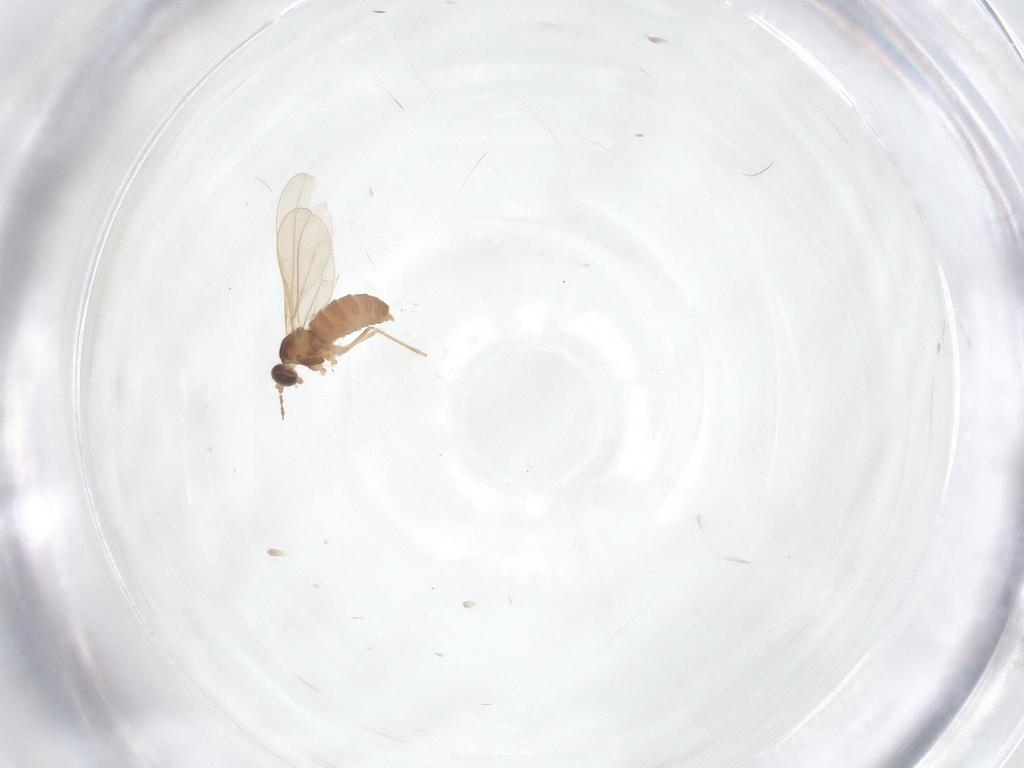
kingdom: Animalia
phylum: Arthropoda
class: Insecta
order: Diptera
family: Cecidomyiidae
